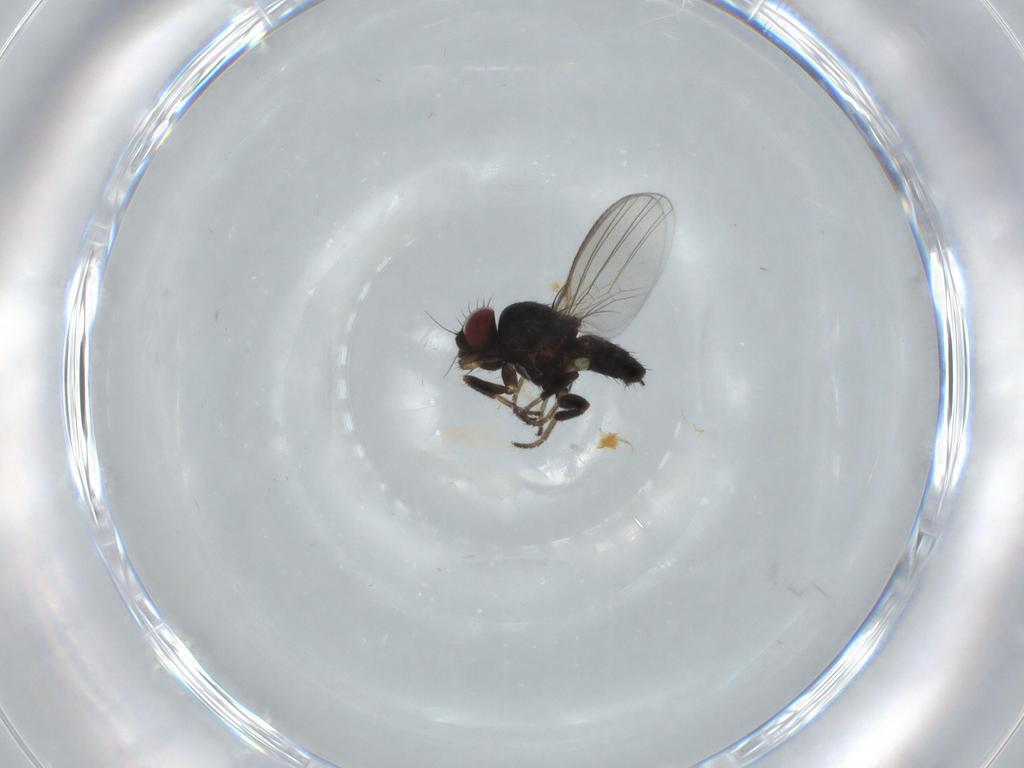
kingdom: Animalia
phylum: Arthropoda
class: Insecta
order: Diptera
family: Milichiidae
